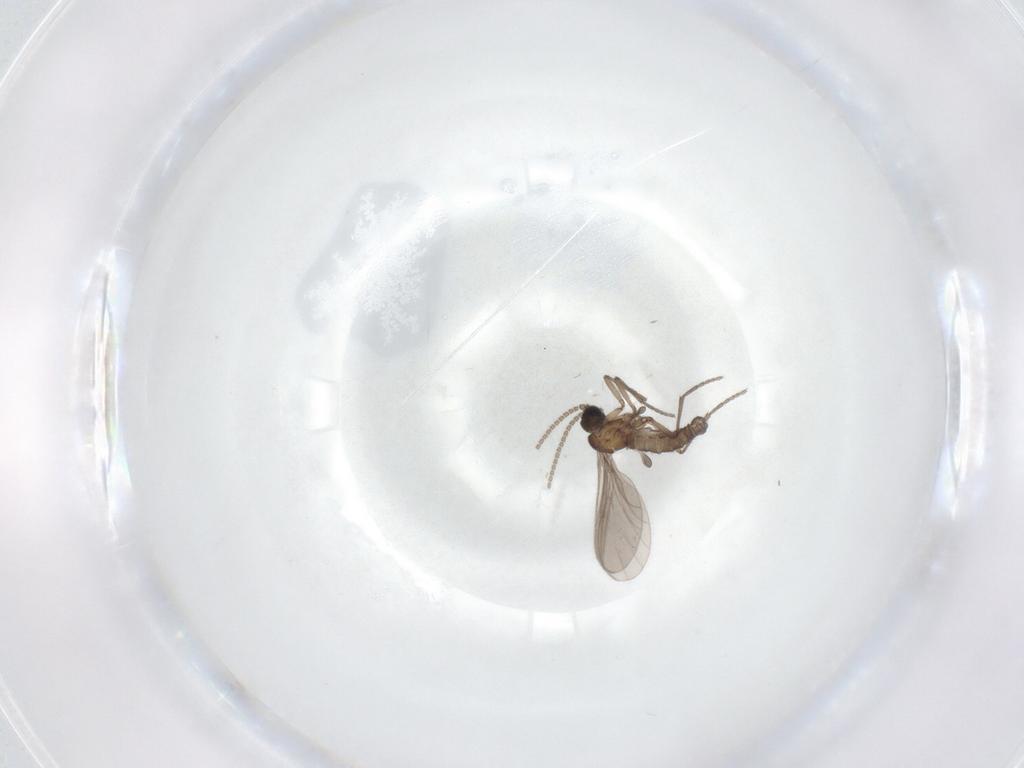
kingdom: Animalia
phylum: Arthropoda
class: Insecta
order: Diptera
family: Sciaridae
